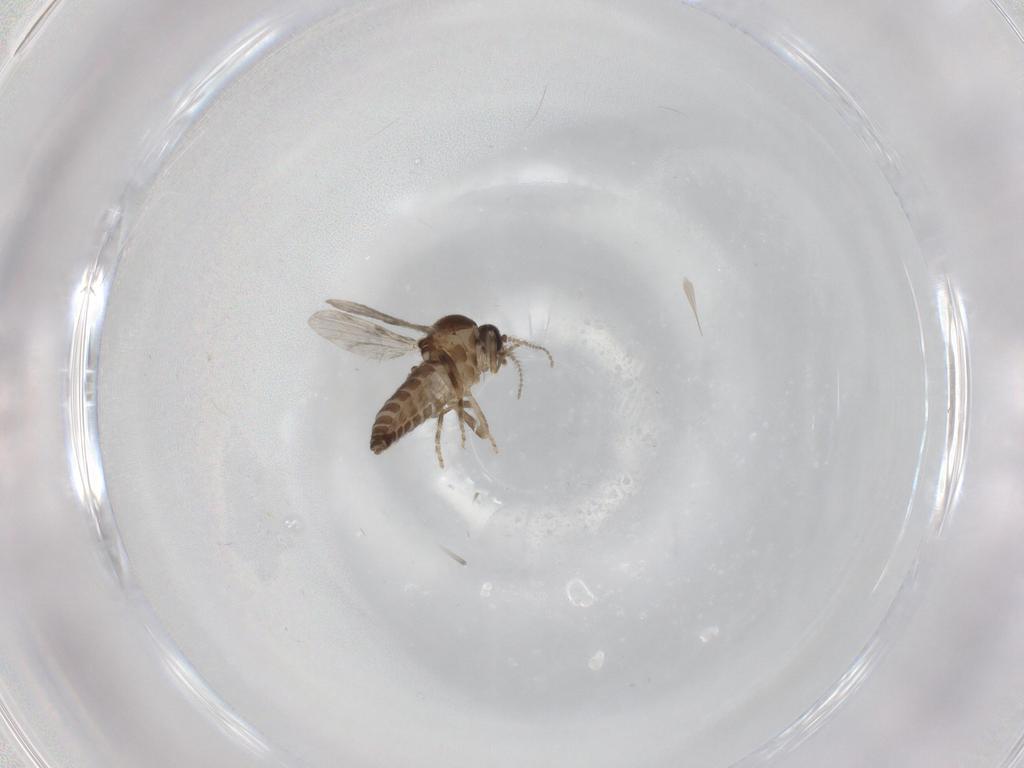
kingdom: Animalia
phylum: Arthropoda
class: Insecta
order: Diptera
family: Ceratopogonidae
